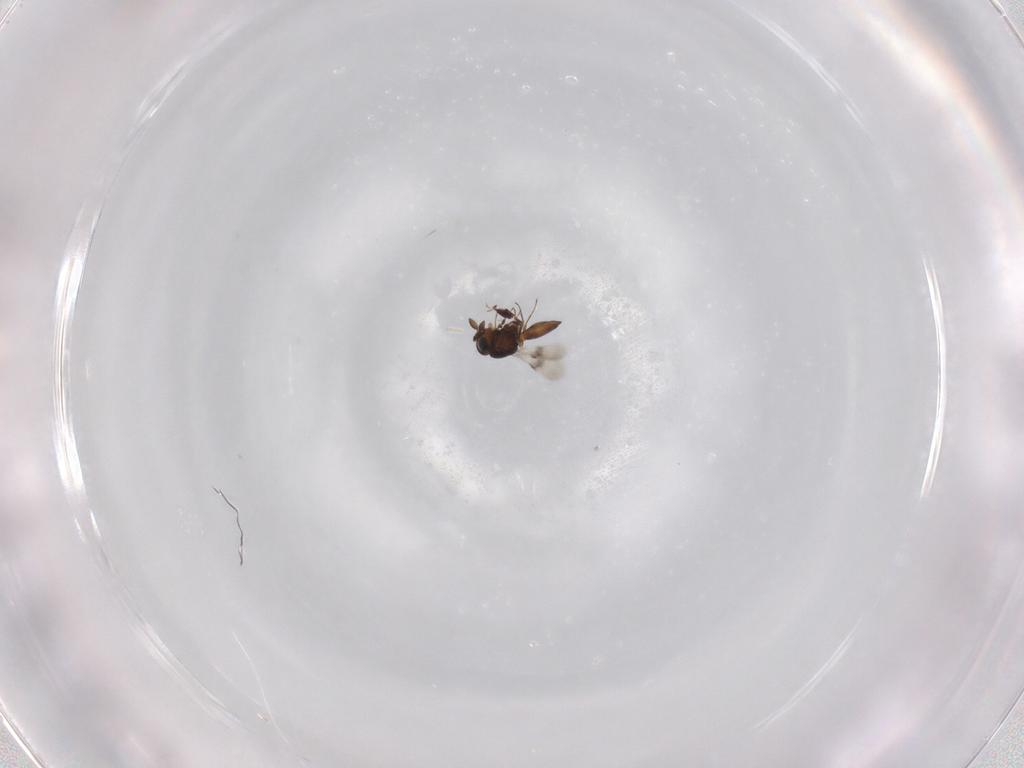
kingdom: Animalia
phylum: Arthropoda
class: Insecta
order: Hymenoptera
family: Scelionidae
